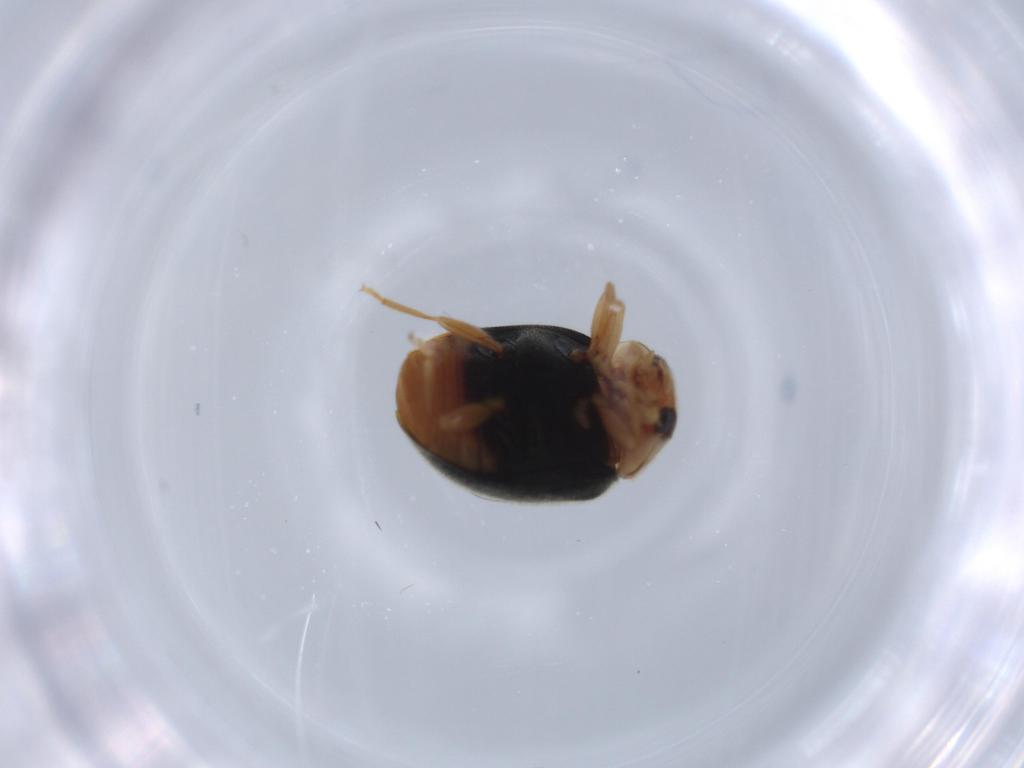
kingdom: Animalia
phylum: Arthropoda
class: Insecta
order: Coleoptera
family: Coccinellidae
